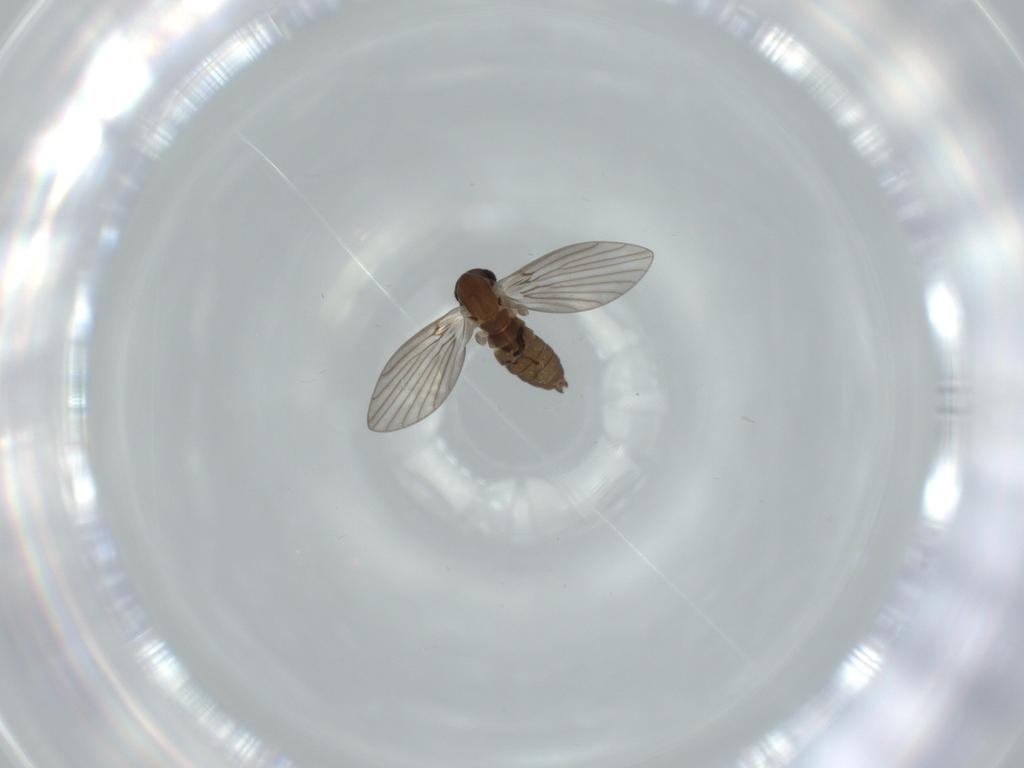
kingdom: Animalia
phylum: Arthropoda
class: Insecta
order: Diptera
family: Psychodidae
